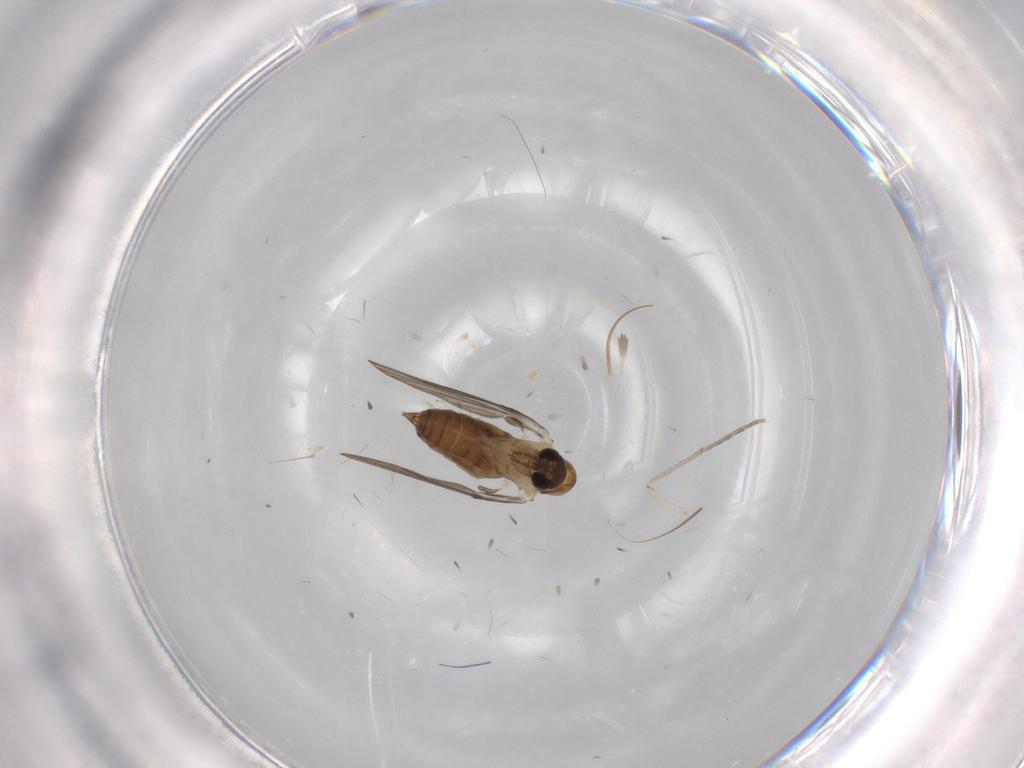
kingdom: Animalia
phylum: Arthropoda
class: Insecta
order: Diptera
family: Chironomidae
